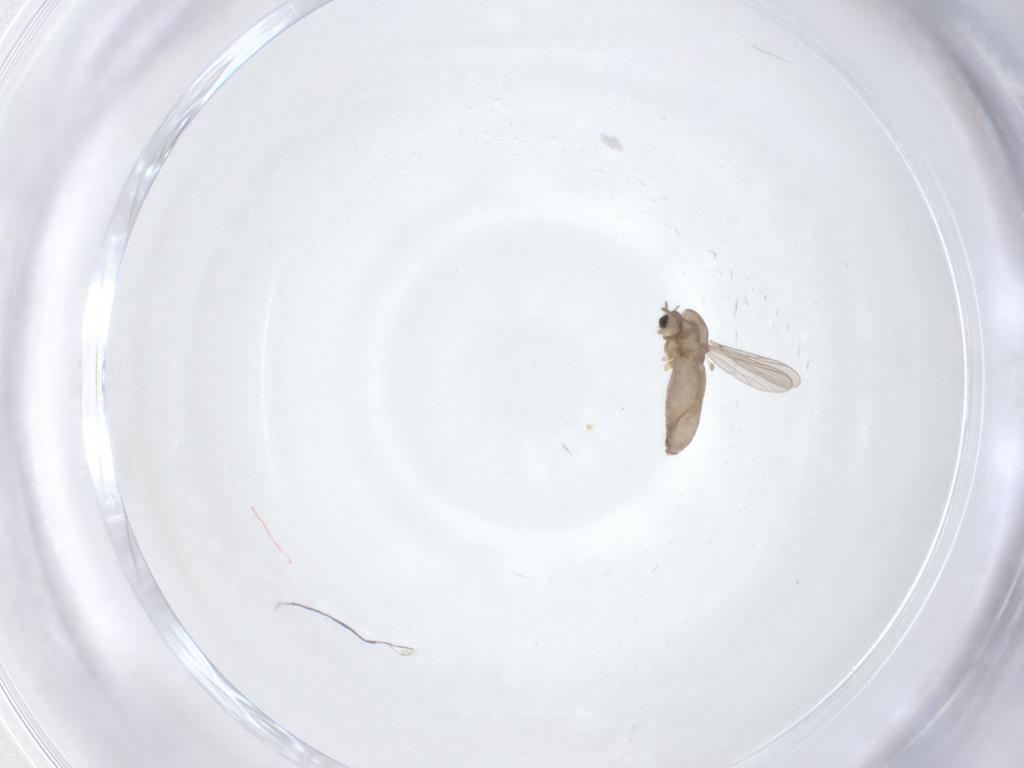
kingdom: Animalia
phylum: Arthropoda
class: Insecta
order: Diptera
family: Chironomidae
